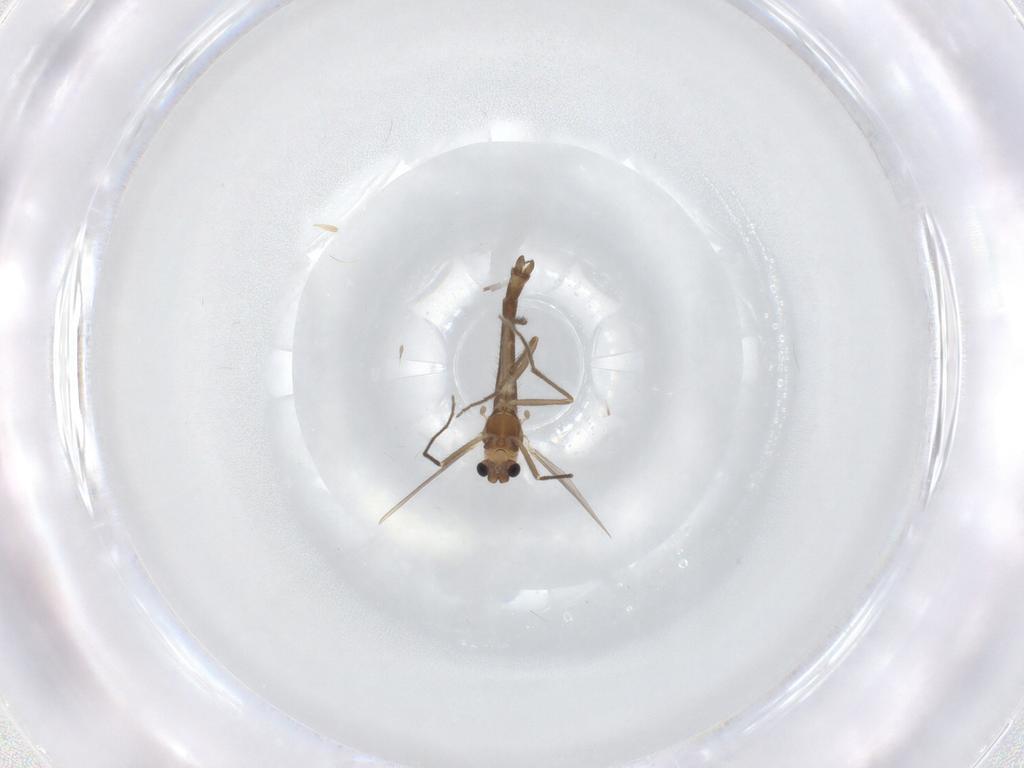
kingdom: Animalia
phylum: Arthropoda
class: Insecta
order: Diptera
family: Chironomidae
